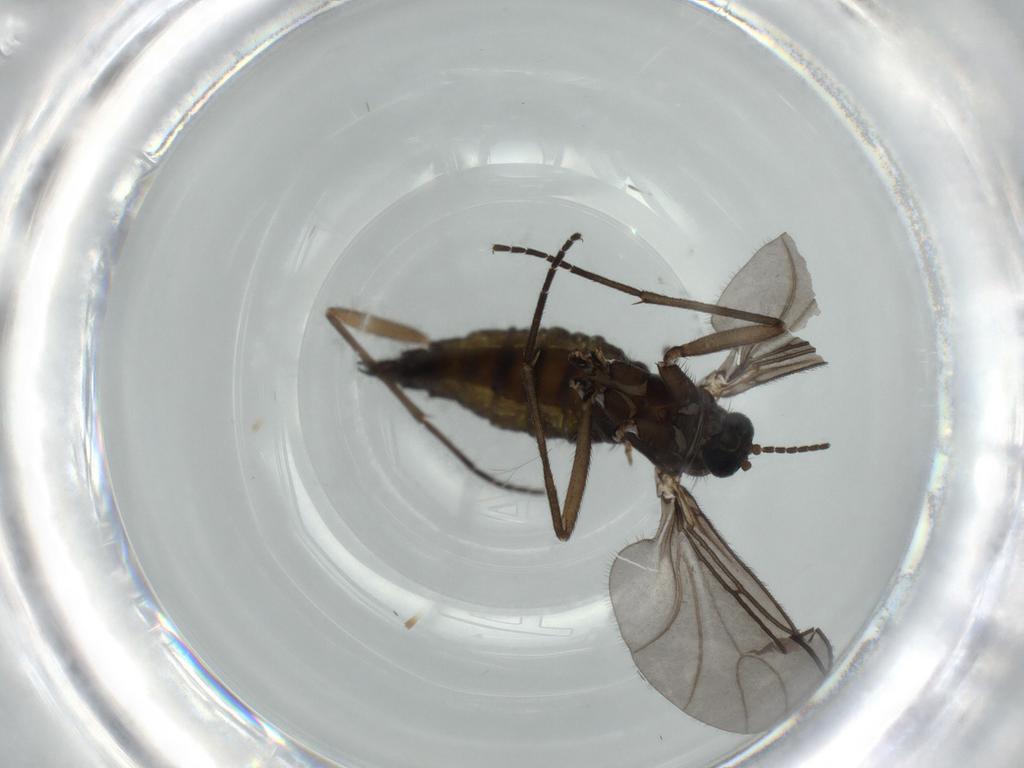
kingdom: Animalia
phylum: Arthropoda
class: Insecta
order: Diptera
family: Sciaridae
